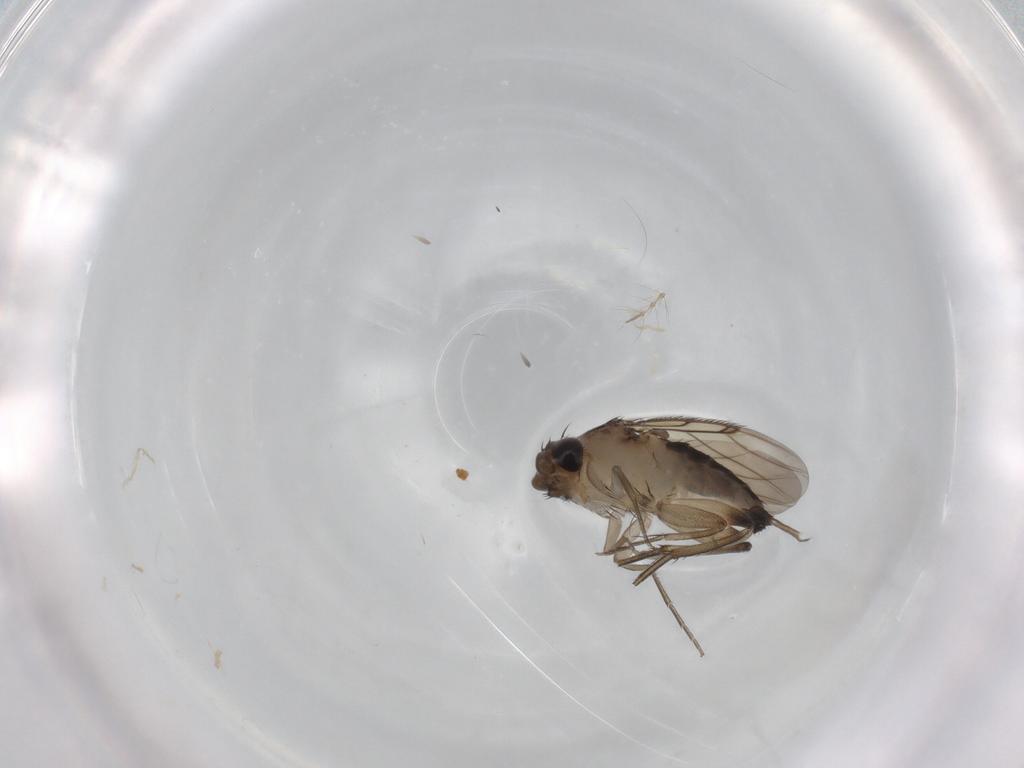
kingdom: Animalia
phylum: Arthropoda
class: Insecta
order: Diptera
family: Phoridae
